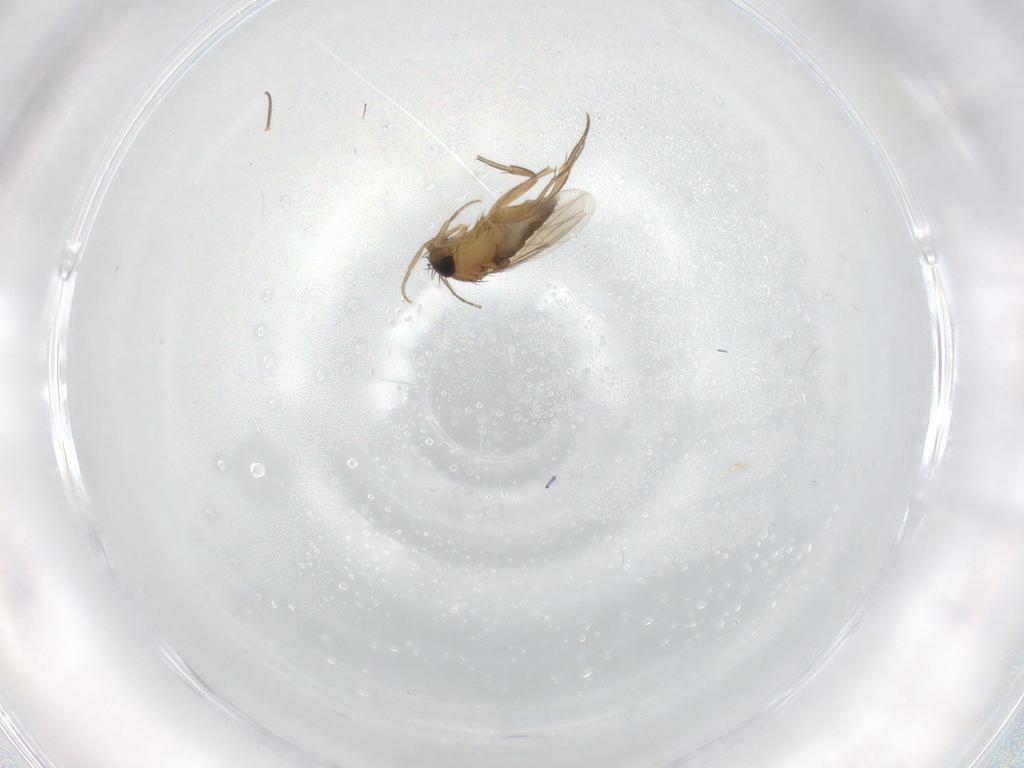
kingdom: Animalia
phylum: Arthropoda
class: Insecta
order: Diptera
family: Phoridae
